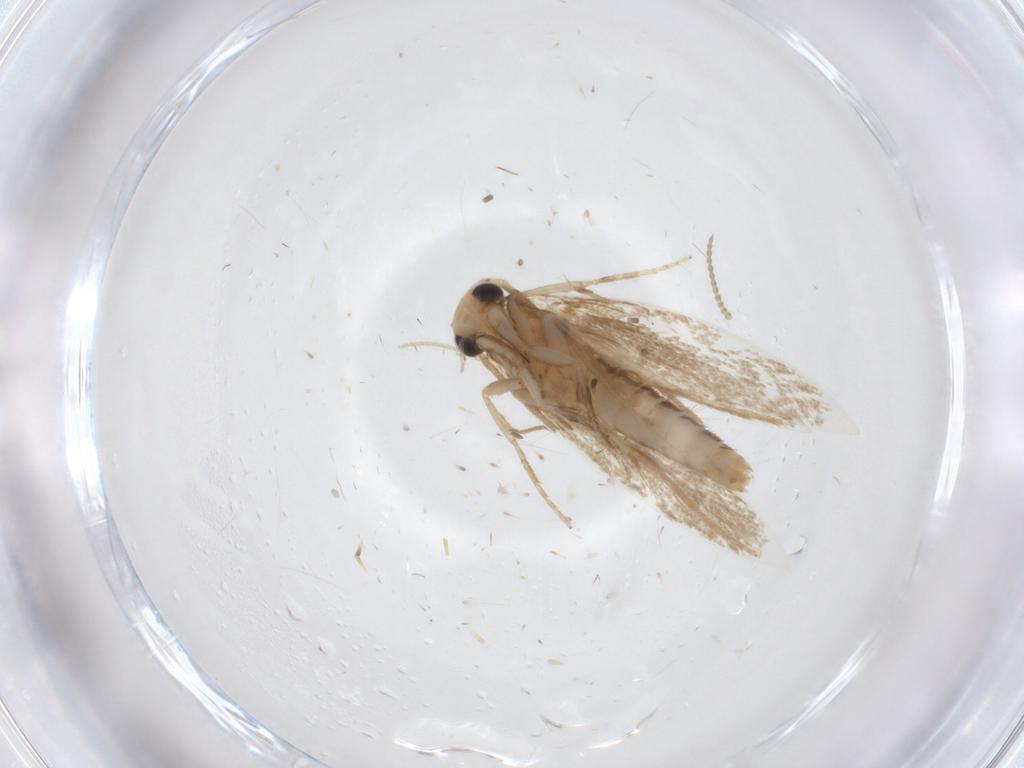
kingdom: Animalia
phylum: Arthropoda
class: Insecta
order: Lepidoptera
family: Tineidae
